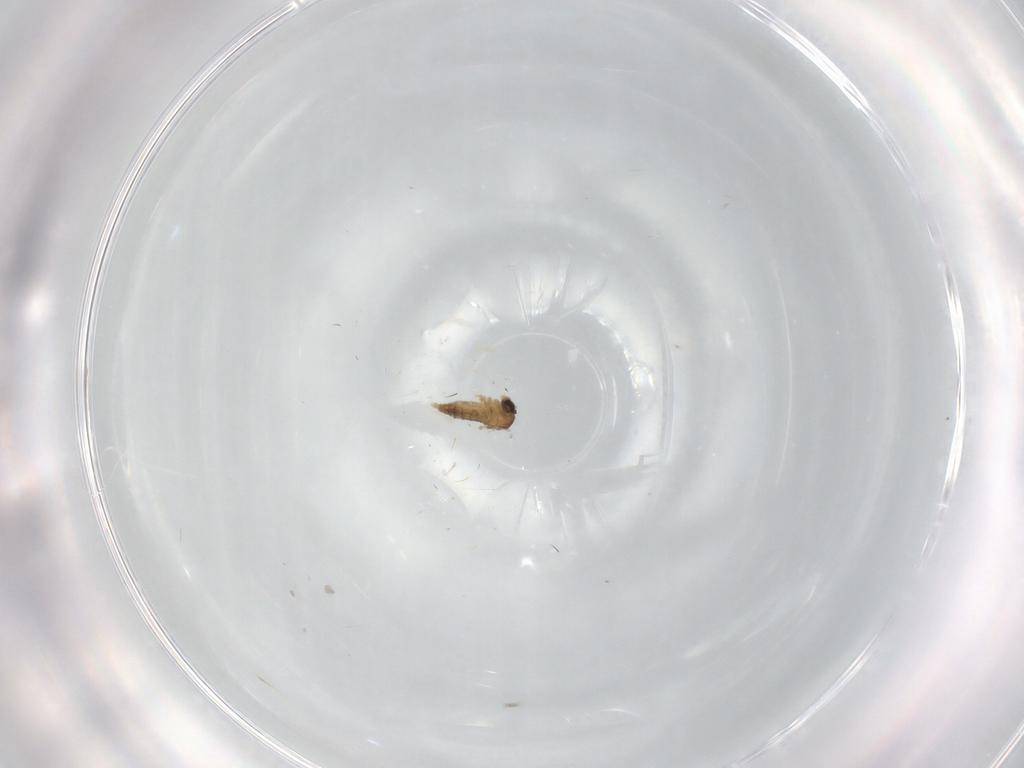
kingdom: Animalia
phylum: Arthropoda
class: Insecta
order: Diptera
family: Cecidomyiidae
